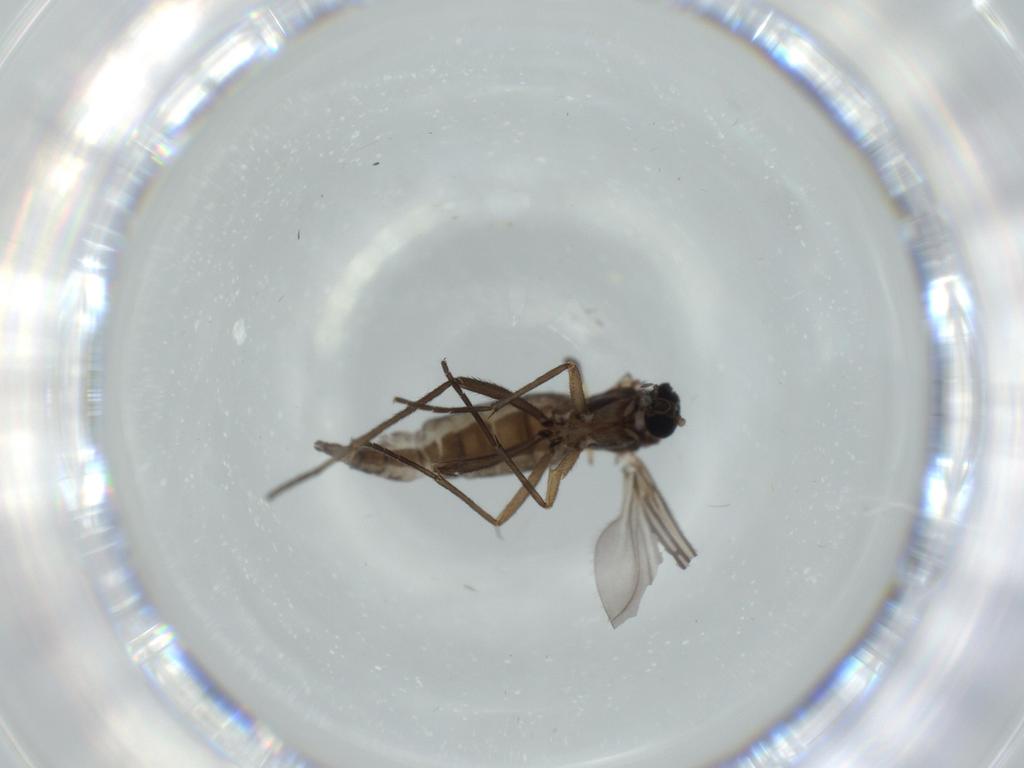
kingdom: Animalia
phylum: Arthropoda
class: Insecta
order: Diptera
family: Sciaridae
